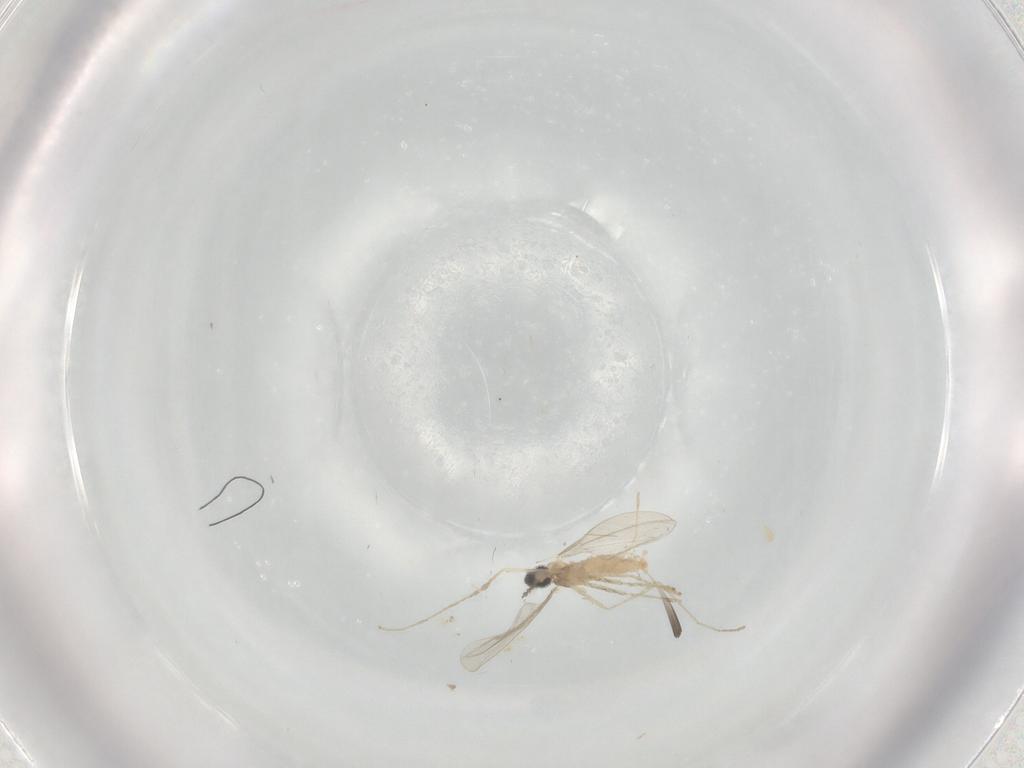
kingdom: Animalia
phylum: Arthropoda
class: Insecta
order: Diptera
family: Cecidomyiidae
